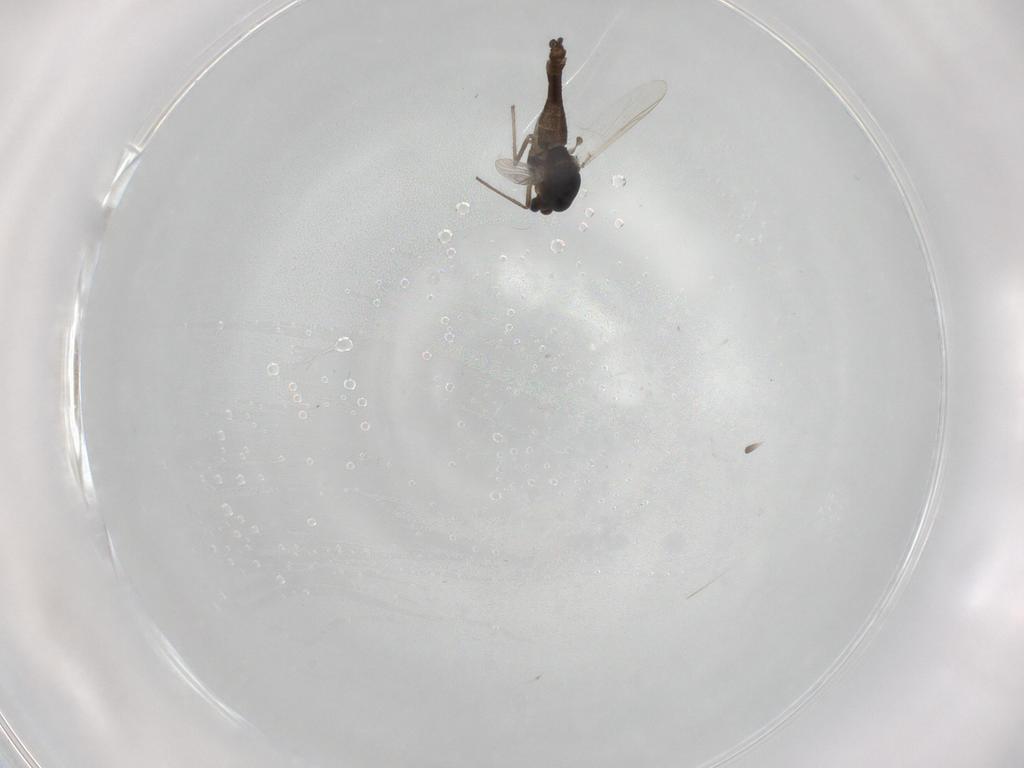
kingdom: Animalia
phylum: Arthropoda
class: Insecta
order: Diptera
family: Chironomidae
